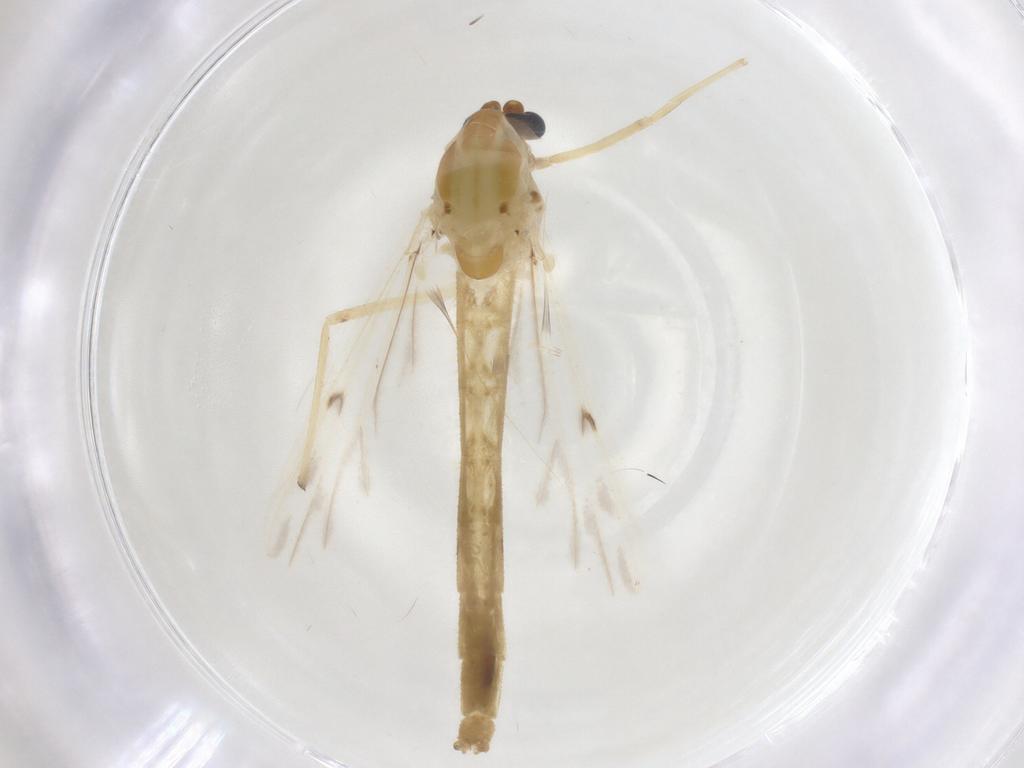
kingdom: Animalia
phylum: Arthropoda
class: Insecta
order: Diptera
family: Chironomidae
